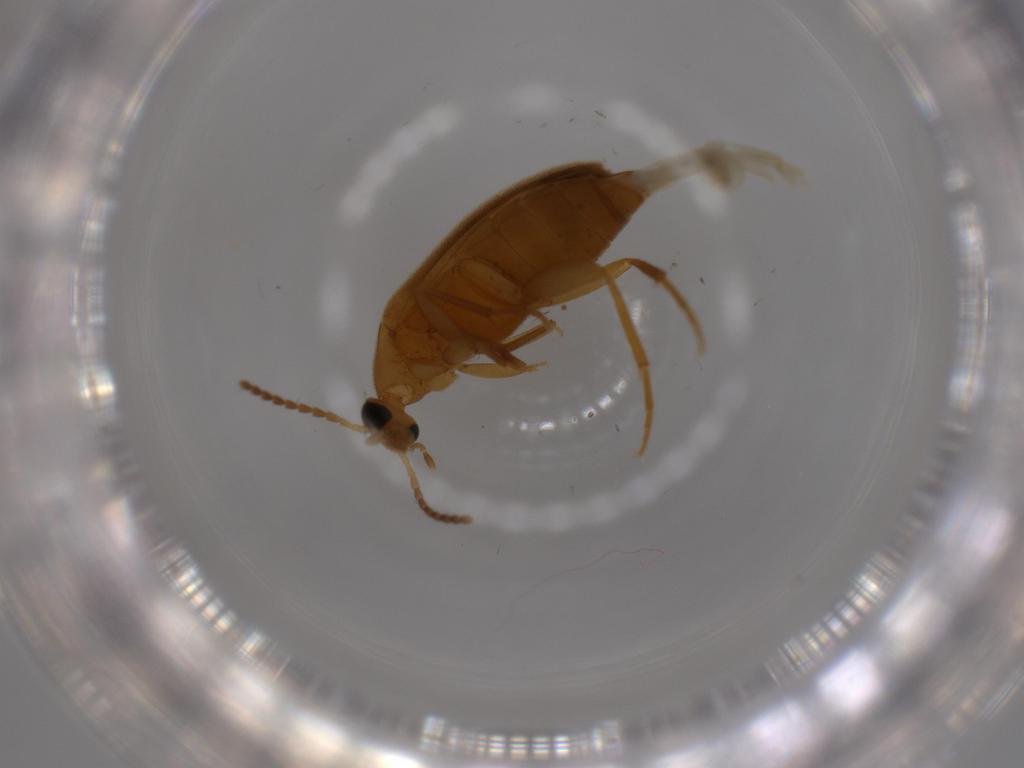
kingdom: Animalia
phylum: Arthropoda
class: Insecta
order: Coleoptera
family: Scraptiidae
